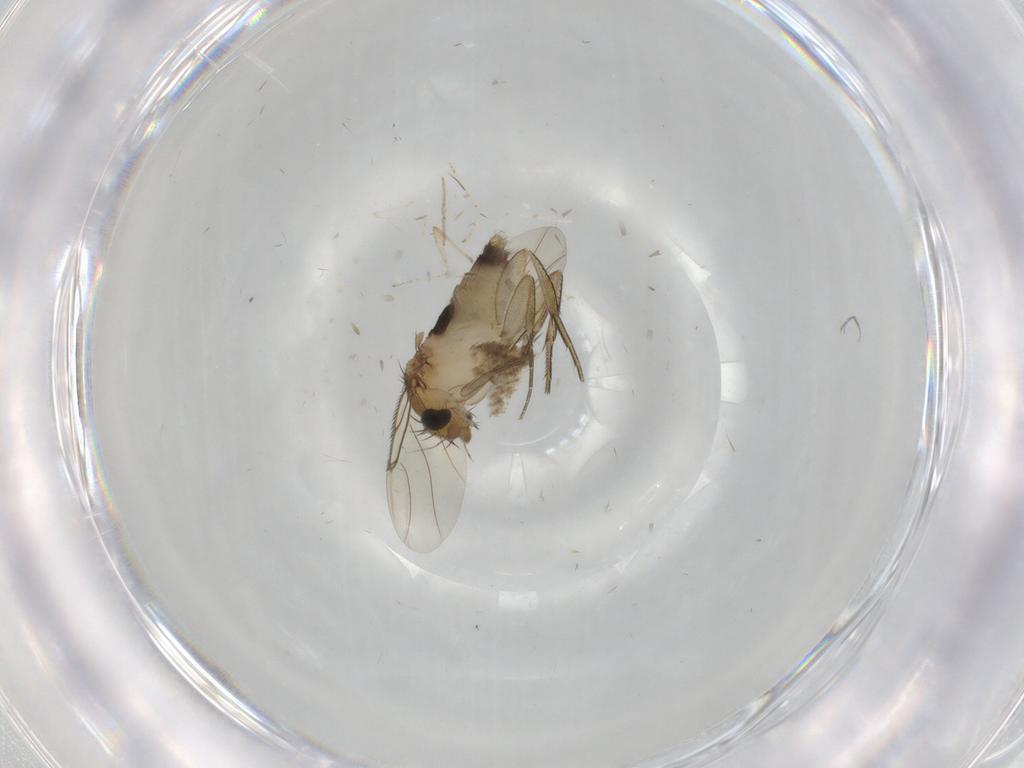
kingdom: Animalia
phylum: Arthropoda
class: Insecta
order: Diptera
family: Phoridae
